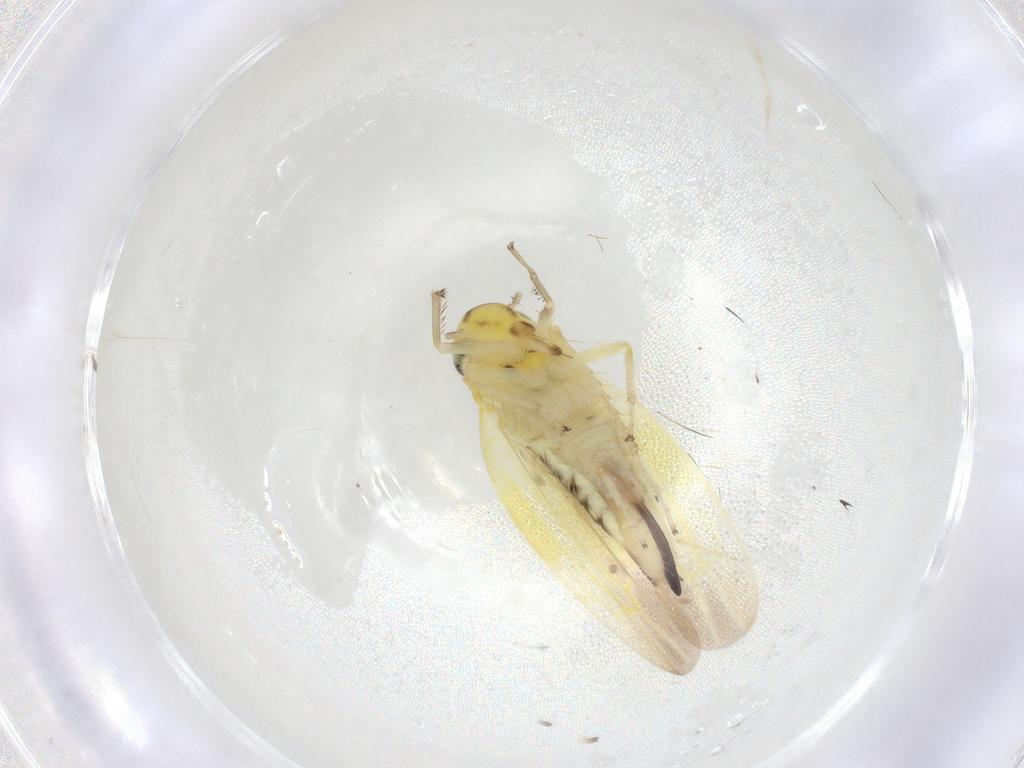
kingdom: Animalia
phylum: Arthropoda
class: Insecta
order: Hemiptera
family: Cicadellidae
